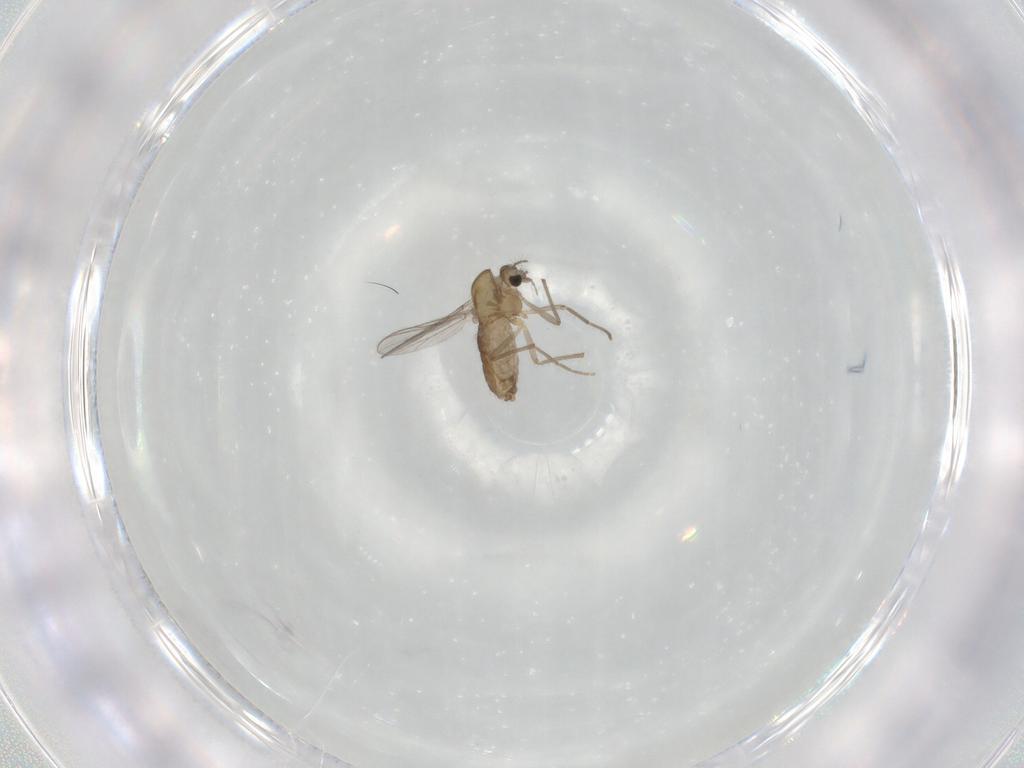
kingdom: Animalia
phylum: Arthropoda
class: Insecta
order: Diptera
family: Chironomidae
